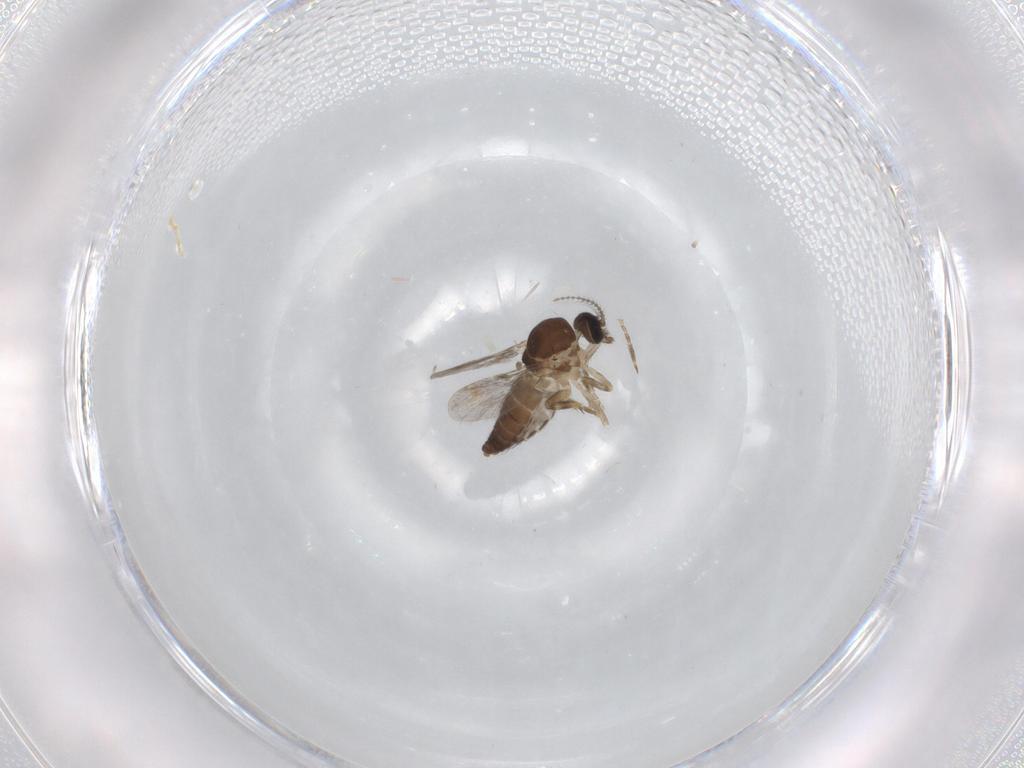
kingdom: Animalia
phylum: Arthropoda
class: Insecta
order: Diptera
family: Ceratopogonidae
